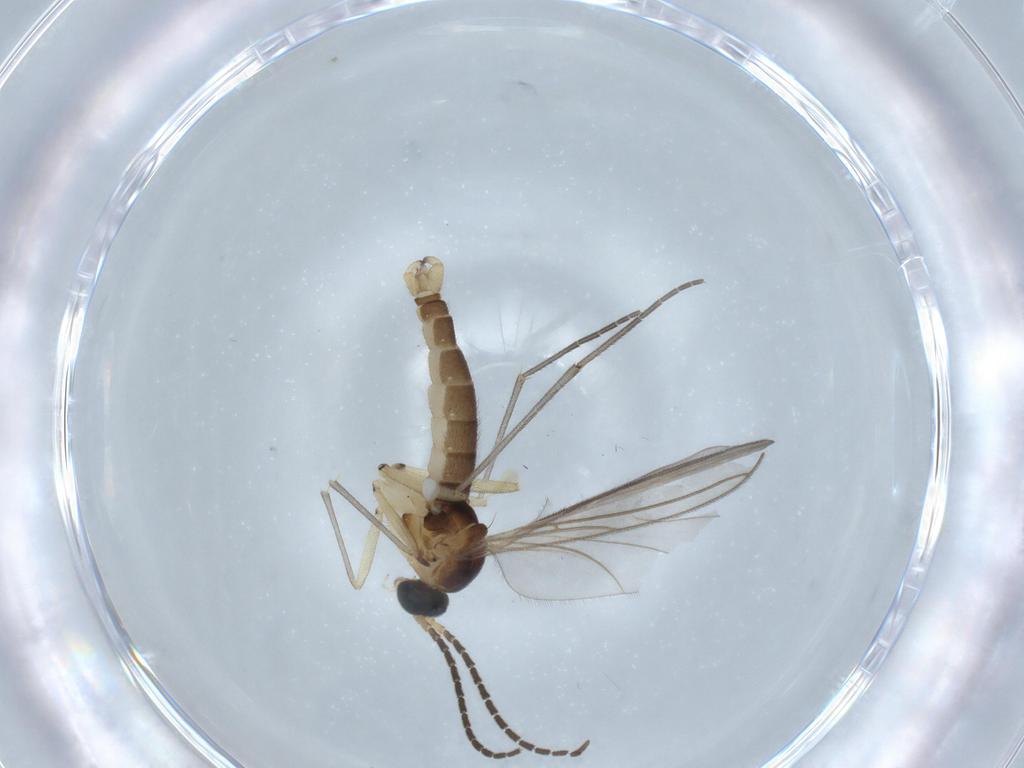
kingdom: Animalia
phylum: Arthropoda
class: Insecta
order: Diptera
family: Sciaridae
